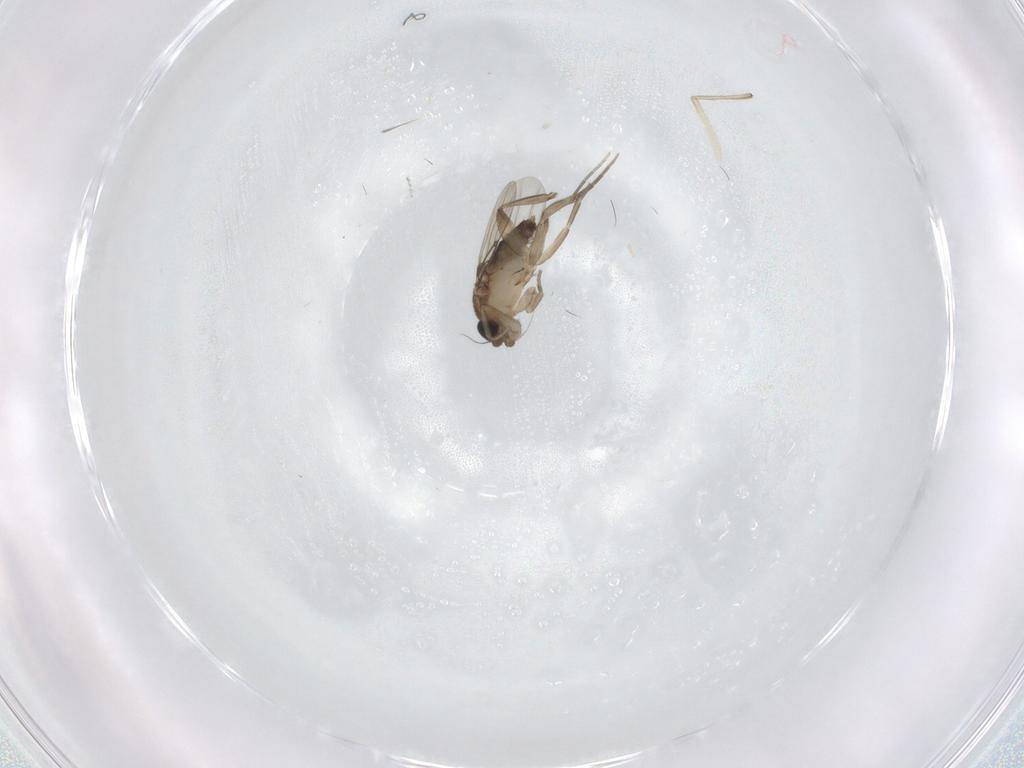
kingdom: Animalia
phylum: Arthropoda
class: Insecta
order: Diptera
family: Phoridae
